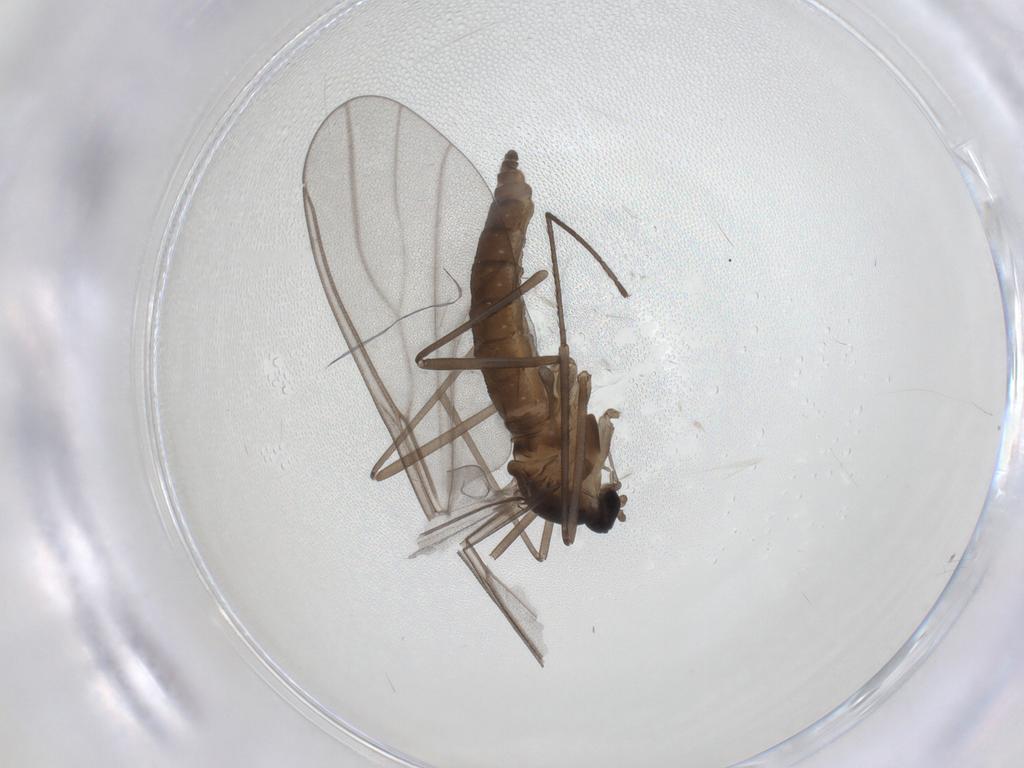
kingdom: Animalia
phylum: Arthropoda
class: Insecta
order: Diptera
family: Cecidomyiidae
